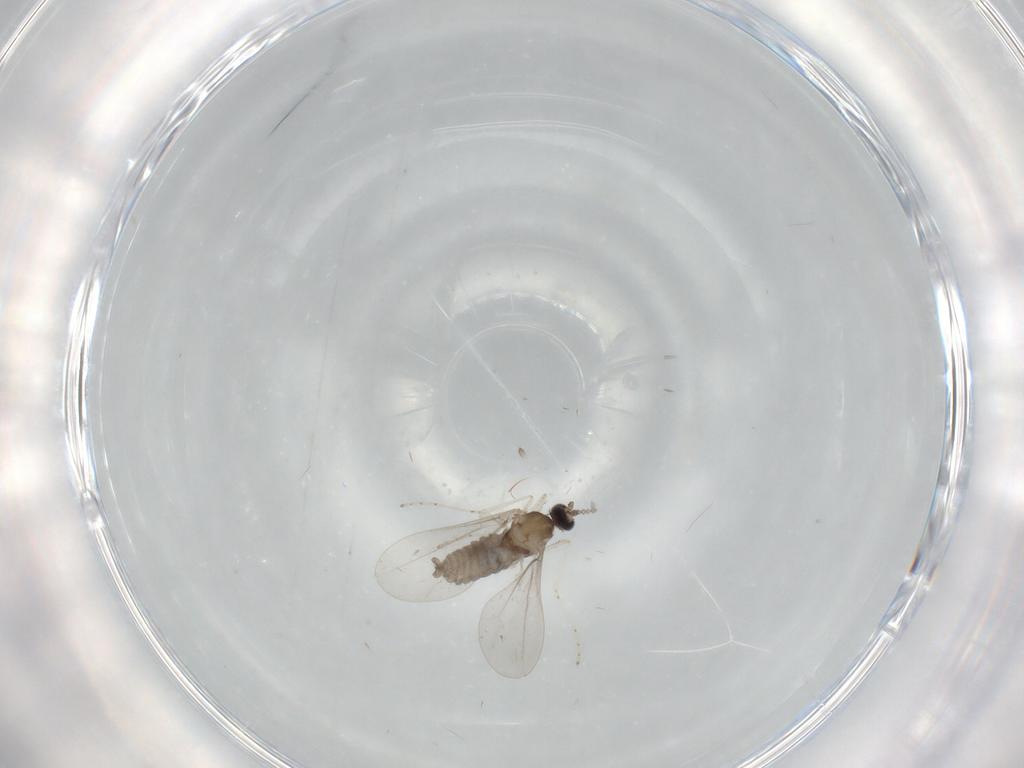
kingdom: Animalia
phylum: Arthropoda
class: Insecta
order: Diptera
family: Cecidomyiidae
